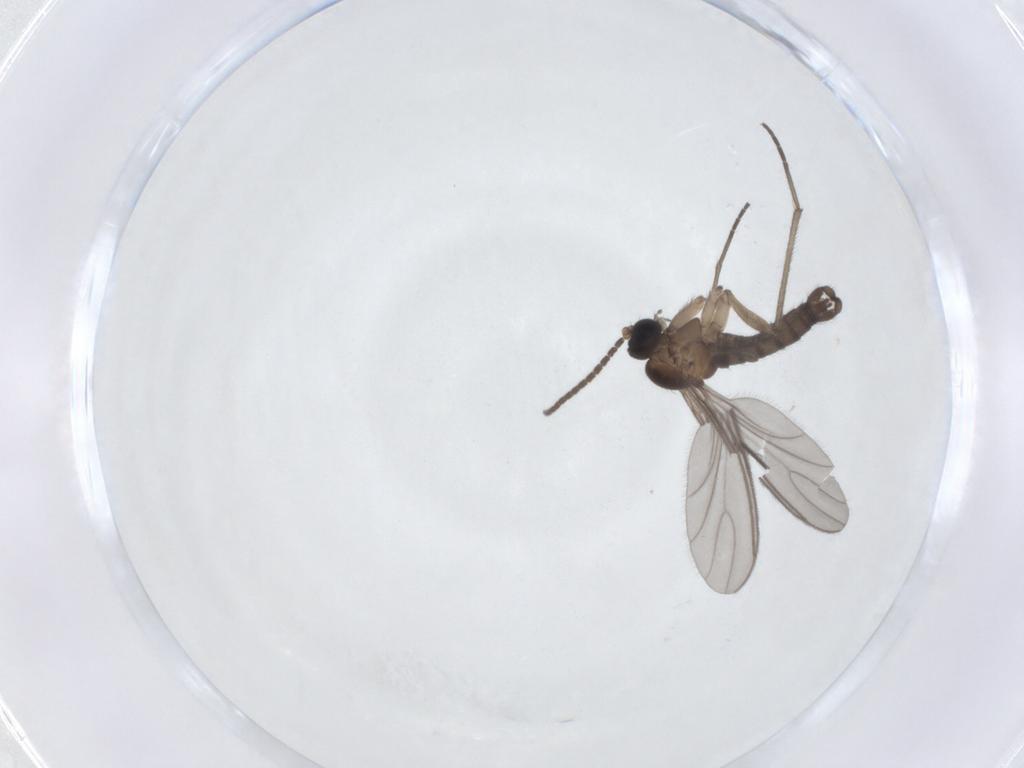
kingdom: Animalia
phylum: Arthropoda
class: Insecta
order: Diptera
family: Sciaridae
